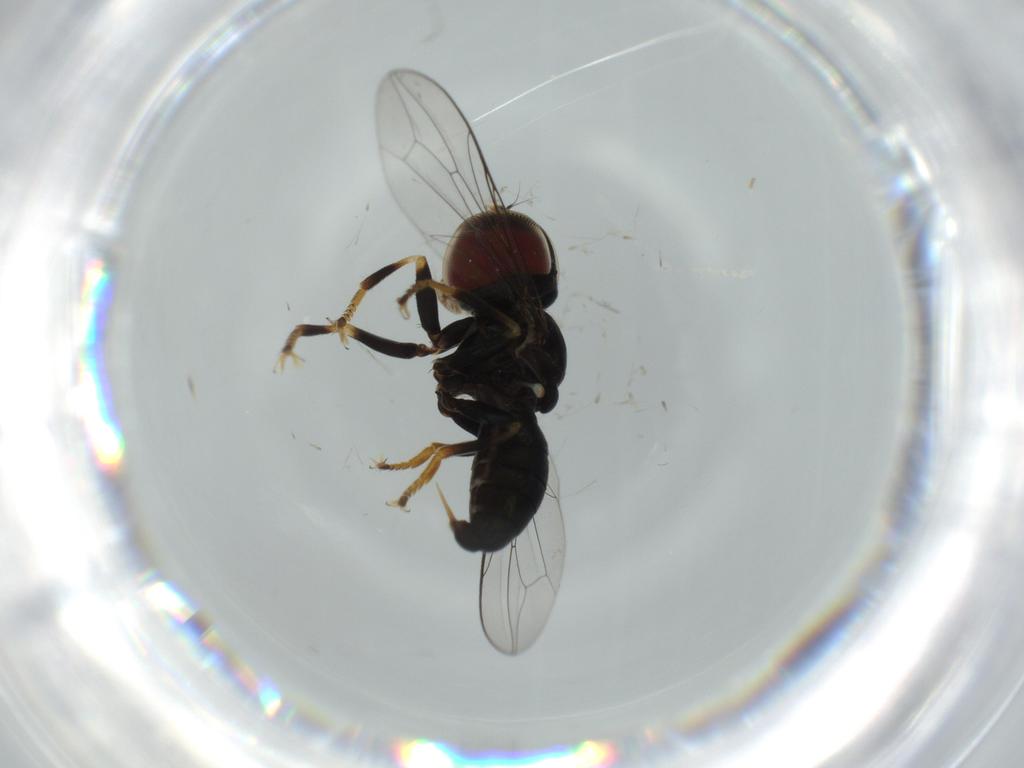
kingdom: Animalia
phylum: Arthropoda
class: Insecta
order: Diptera
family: Pipunculidae
